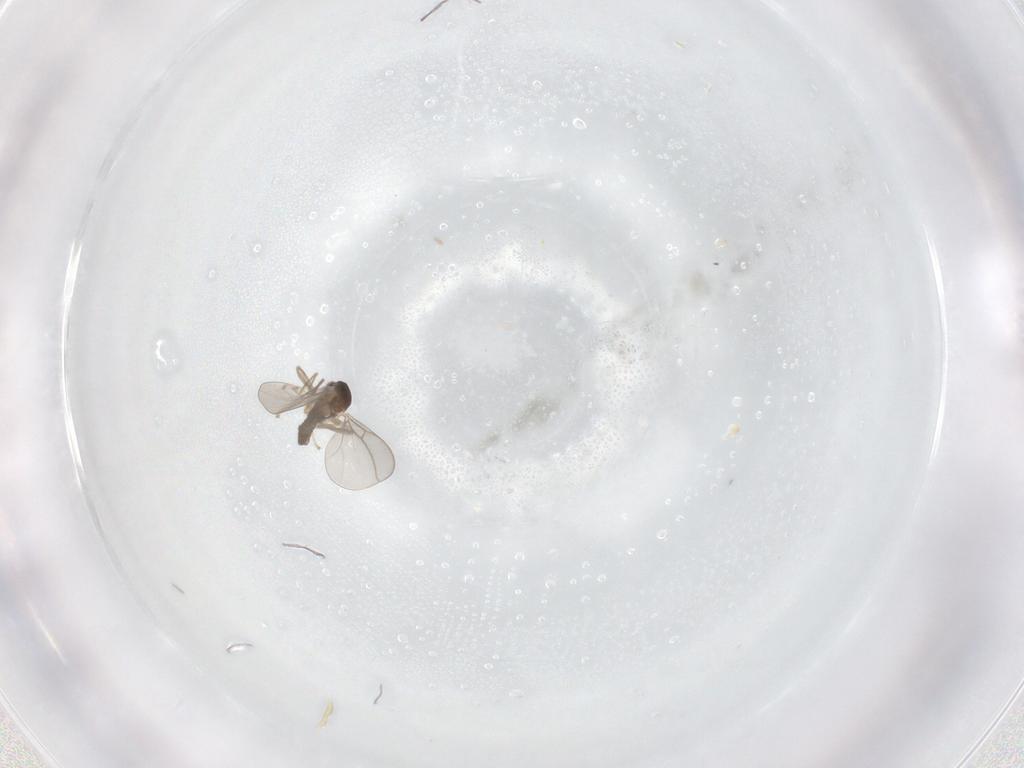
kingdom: Animalia
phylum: Arthropoda
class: Insecta
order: Diptera
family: Cecidomyiidae
